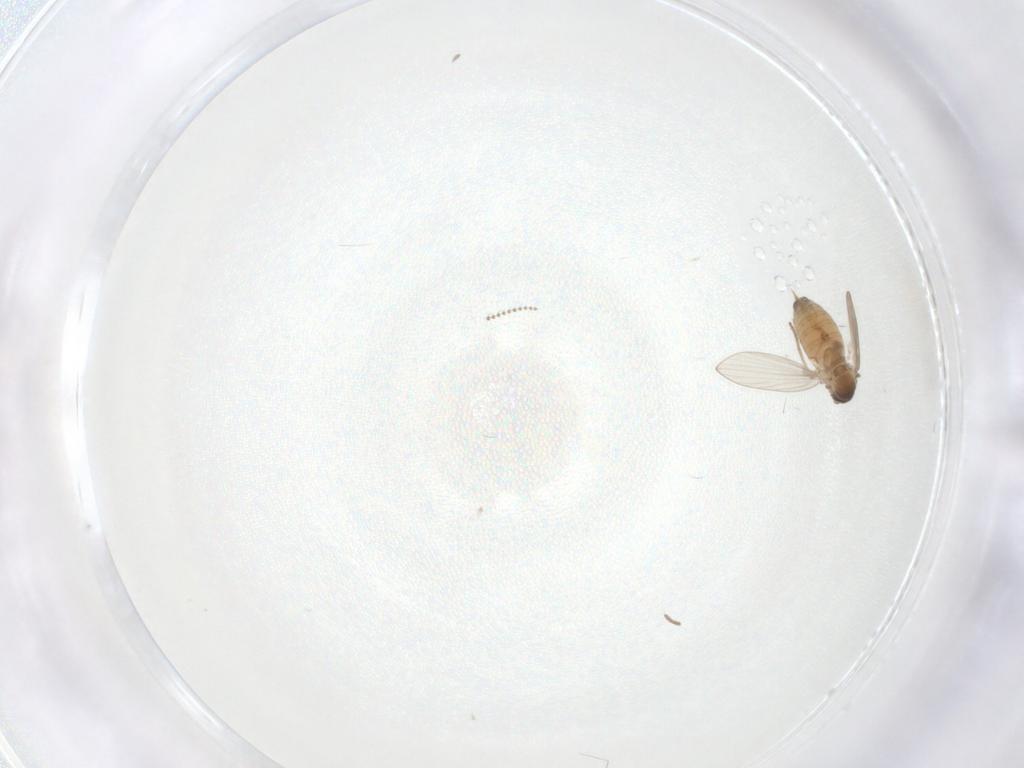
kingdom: Animalia
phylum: Arthropoda
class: Insecta
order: Diptera
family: Psychodidae
